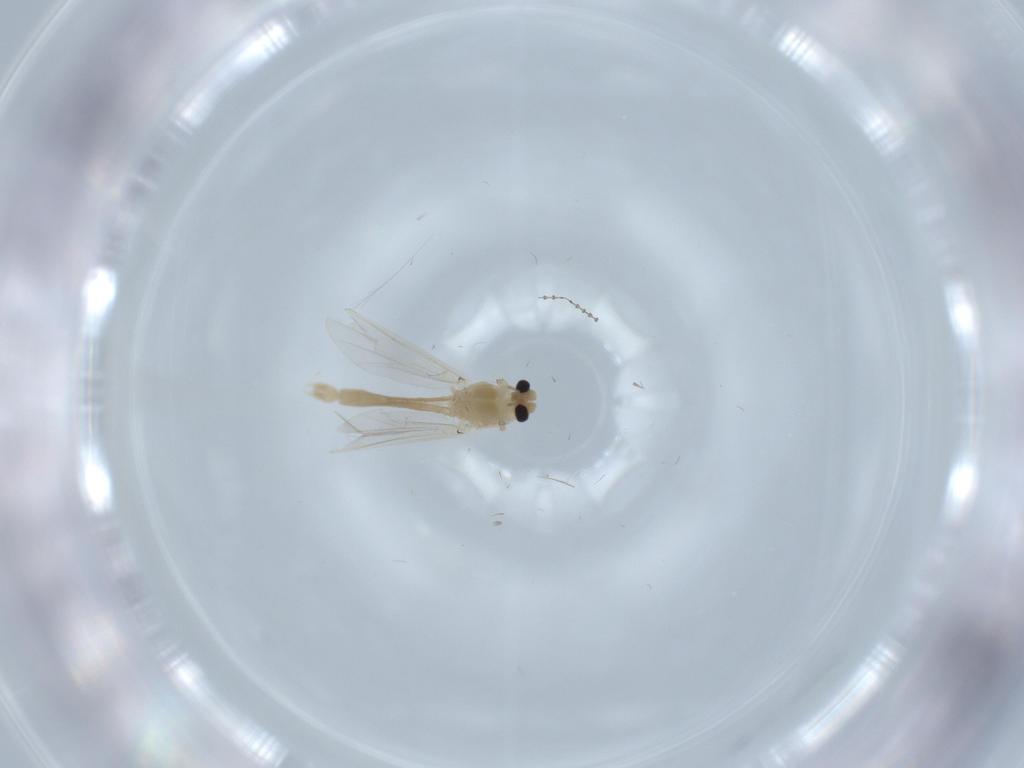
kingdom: Animalia
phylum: Arthropoda
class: Insecta
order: Diptera
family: Chironomidae
